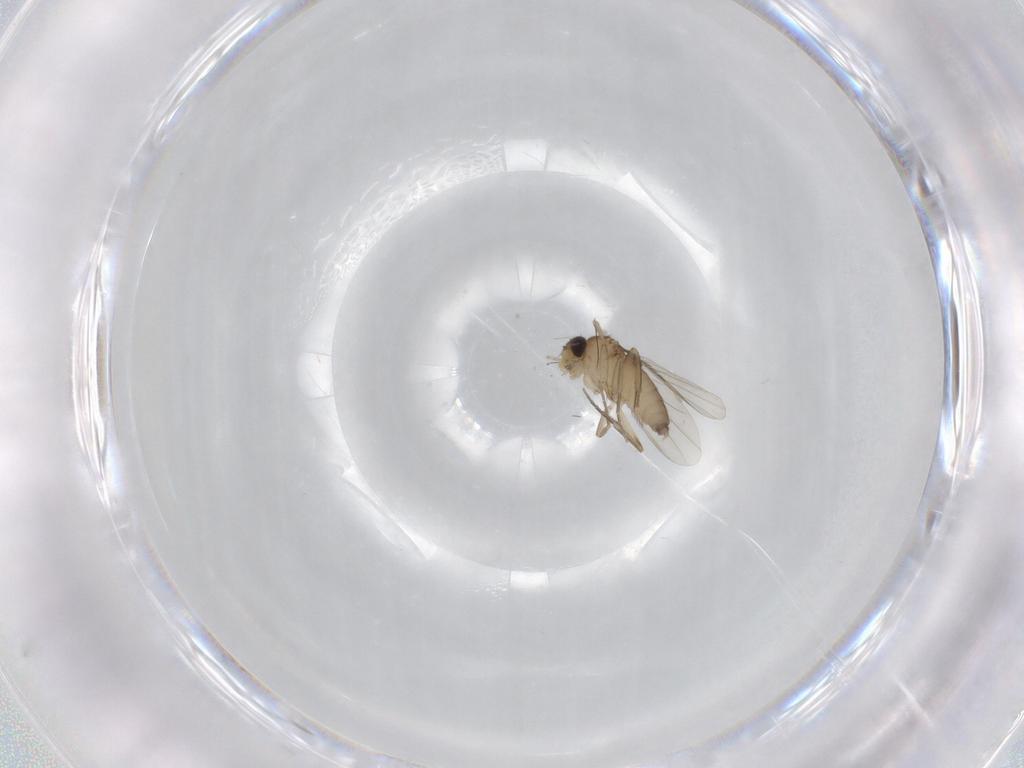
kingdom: Animalia
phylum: Arthropoda
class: Insecta
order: Diptera
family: Phoridae
